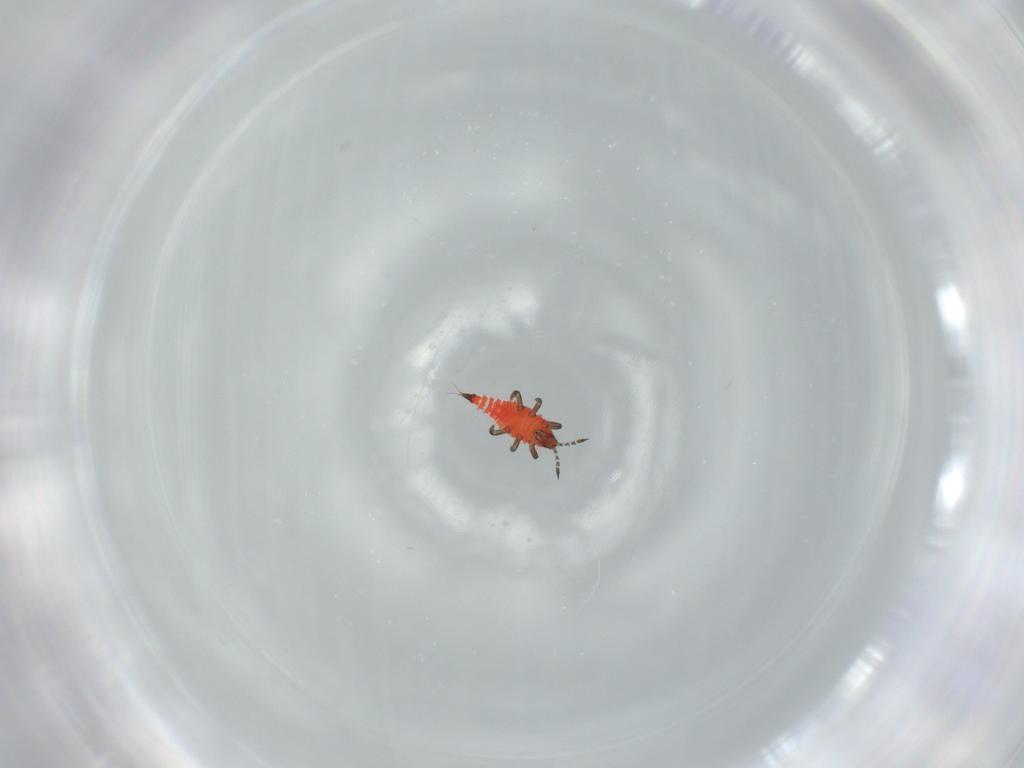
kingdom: Animalia
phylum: Arthropoda
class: Insecta
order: Thysanoptera
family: Phlaeothripidae
